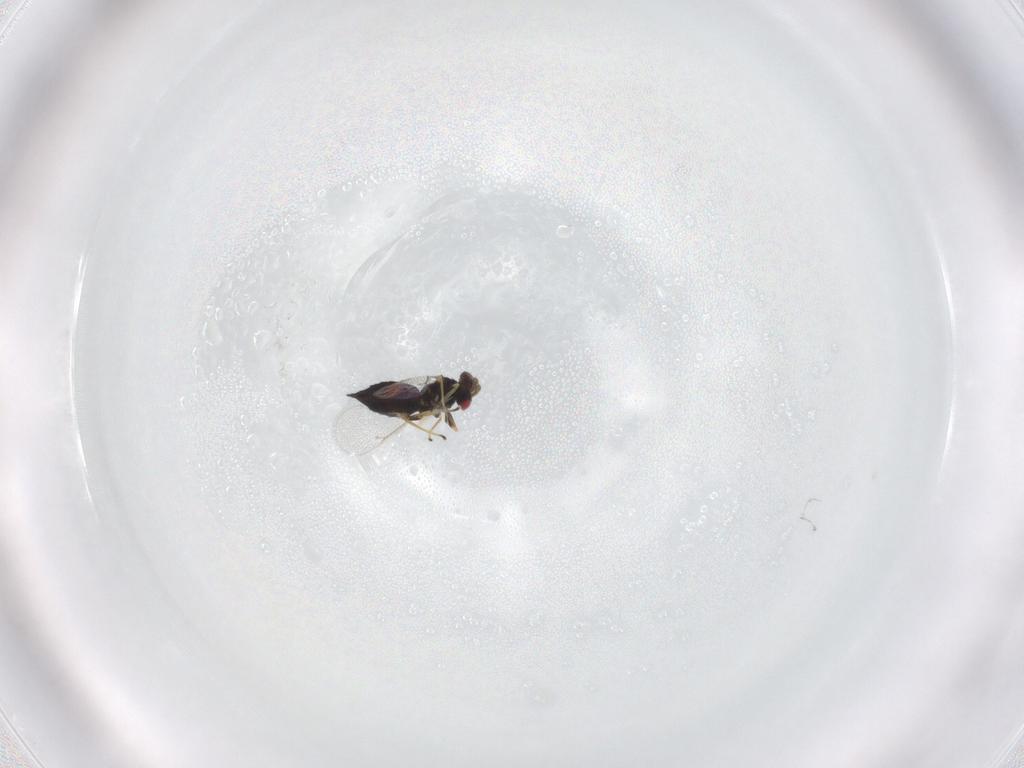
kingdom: Animalia
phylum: Arthropoda
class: Insecta
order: Hymenoptera
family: Eulophidae
